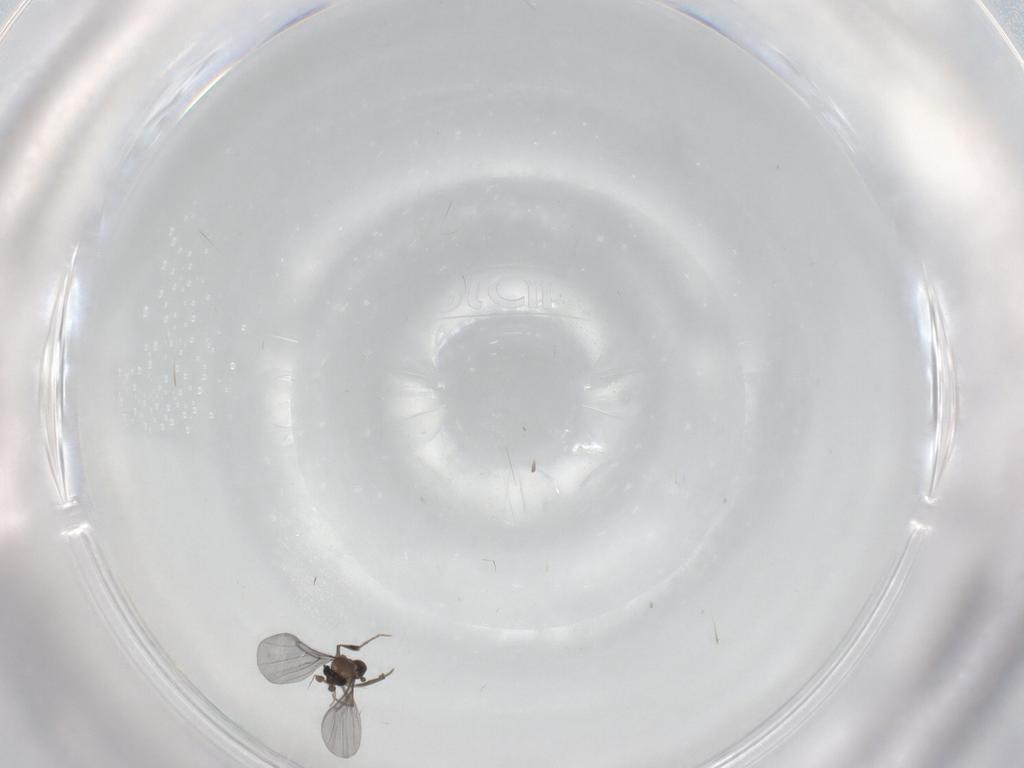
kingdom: Animalia
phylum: Arthropoda
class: Insecta
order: Diptera
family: Phoridae
